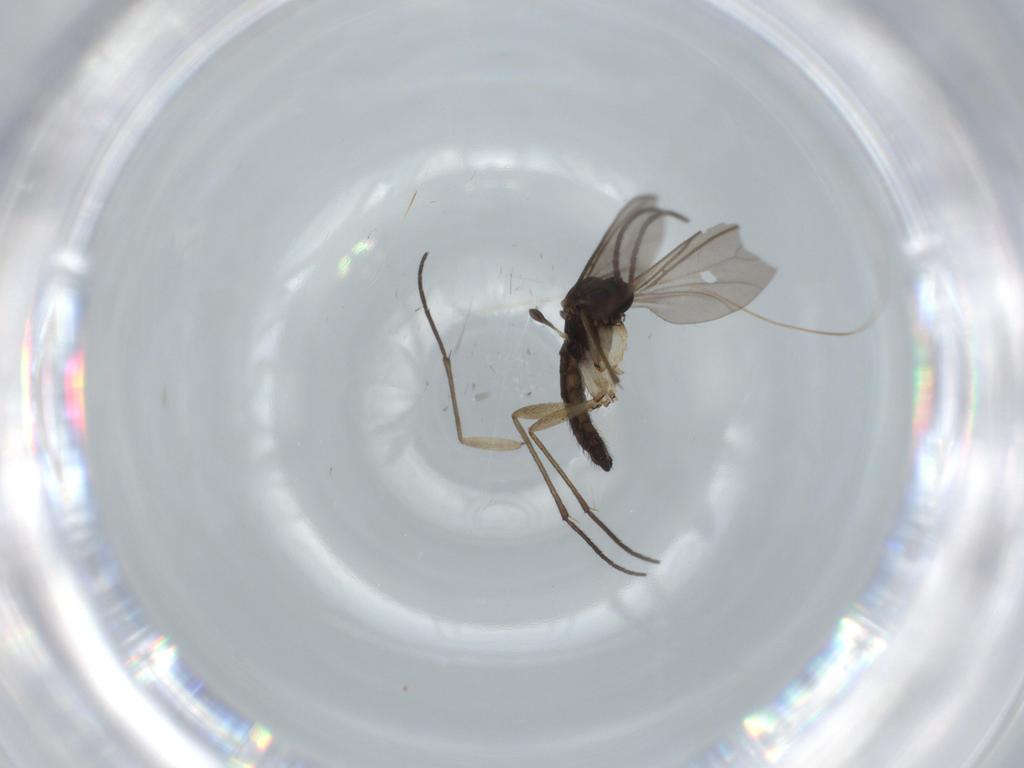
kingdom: Animalia
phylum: Arthropoda
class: Insecta
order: Diptera
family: Sciaridae
